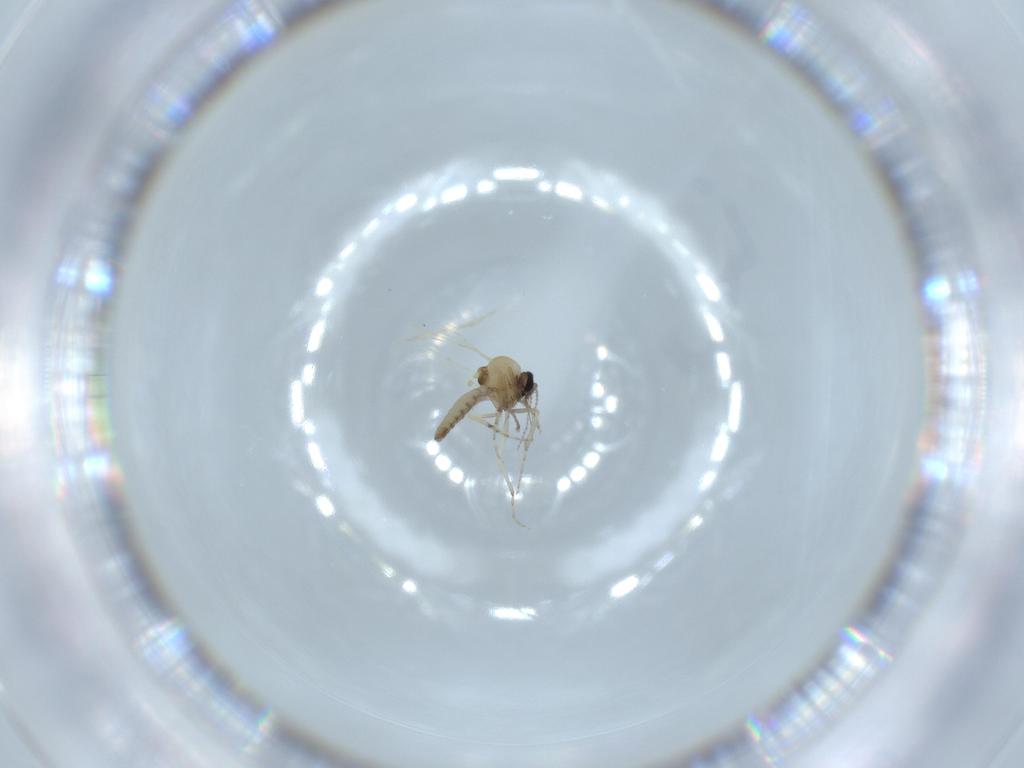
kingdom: Animalia
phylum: Arthropoda
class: Insecta
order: Diptera
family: Ceratopogonidae
